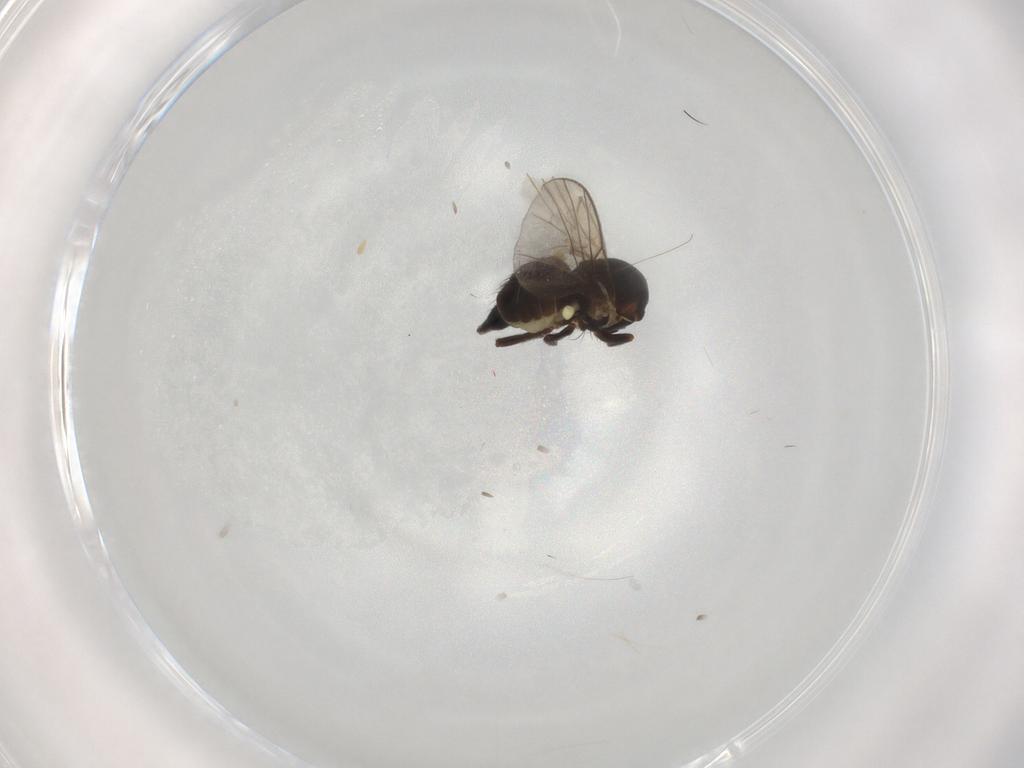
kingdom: Animalia
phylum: Arthropoda
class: Insecta
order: Diptera
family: Agromyzidae
